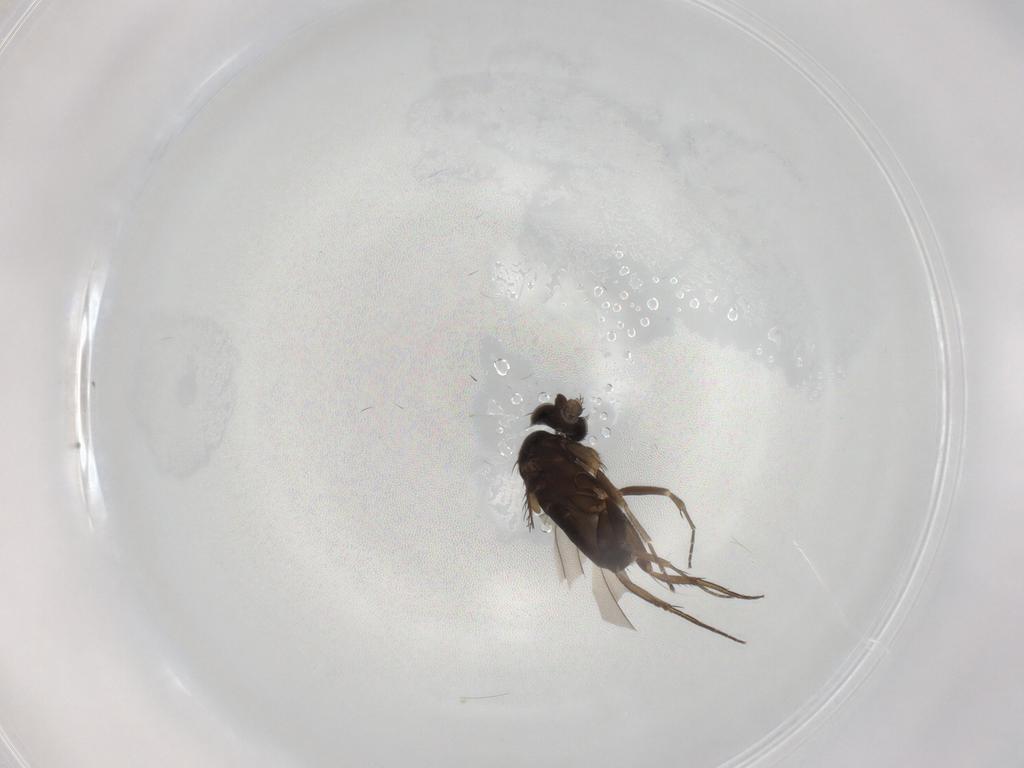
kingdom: Animalia
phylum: Arthropoda
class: Insecta
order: Diptera
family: Phoridae
